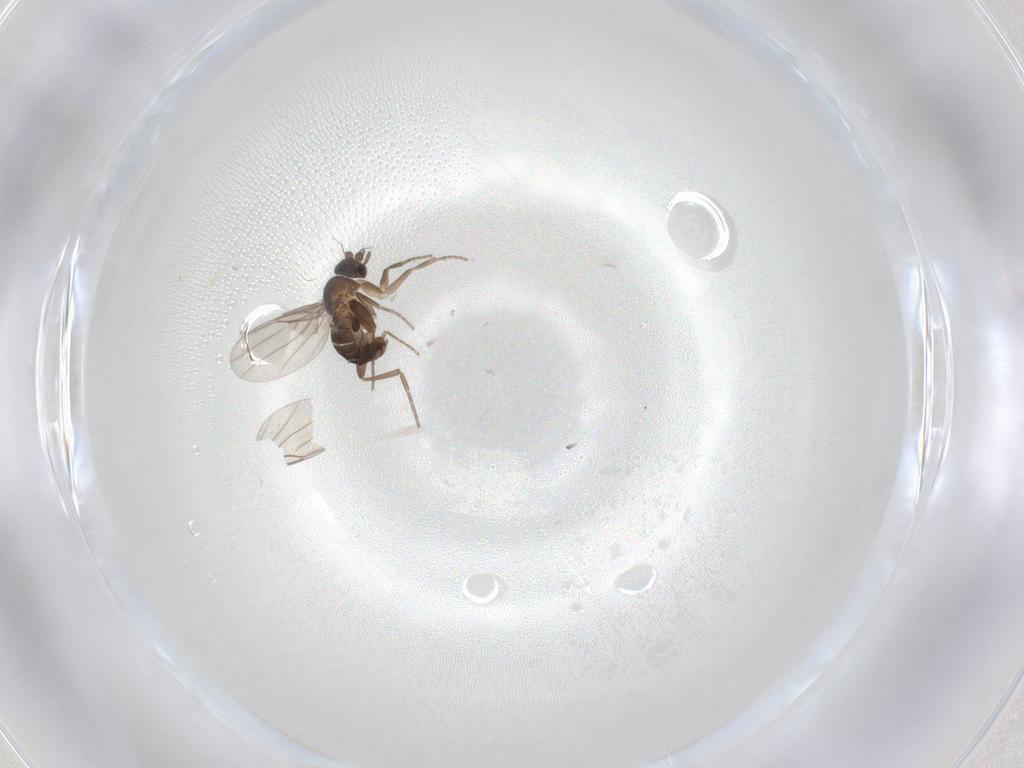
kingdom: Animalia
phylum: Arthropoda
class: Insecta
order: Diptera
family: Phoridae
